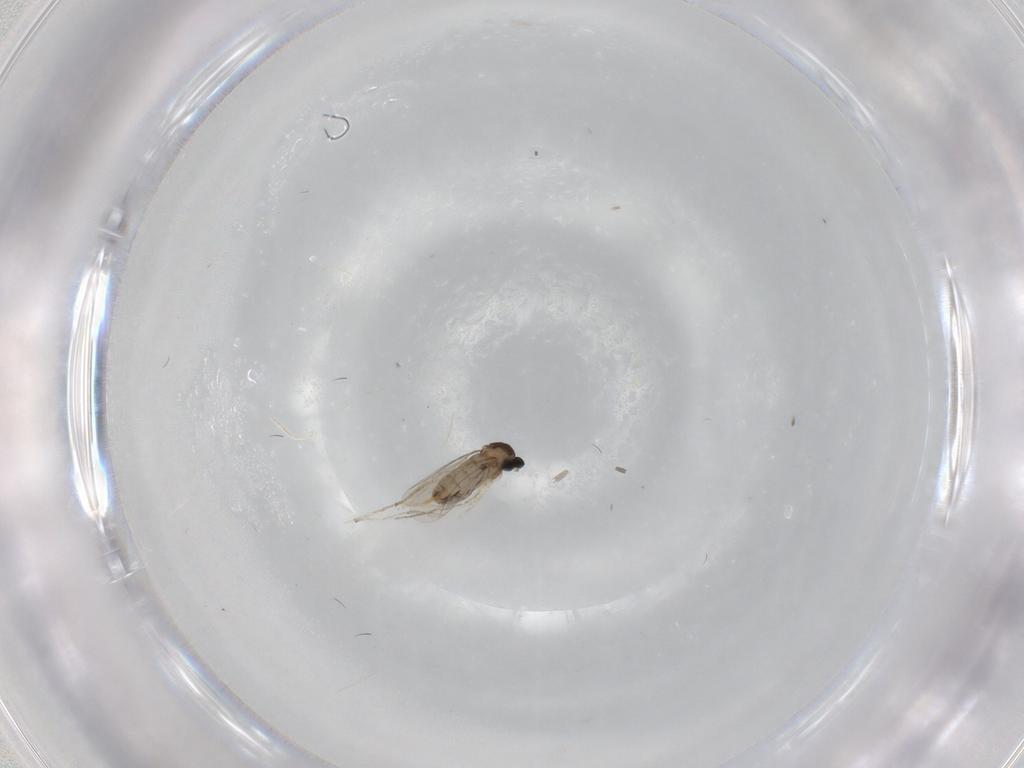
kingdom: Animalia
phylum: Arthropoda
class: Insecta
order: Diptera
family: Cecidomyiidae
